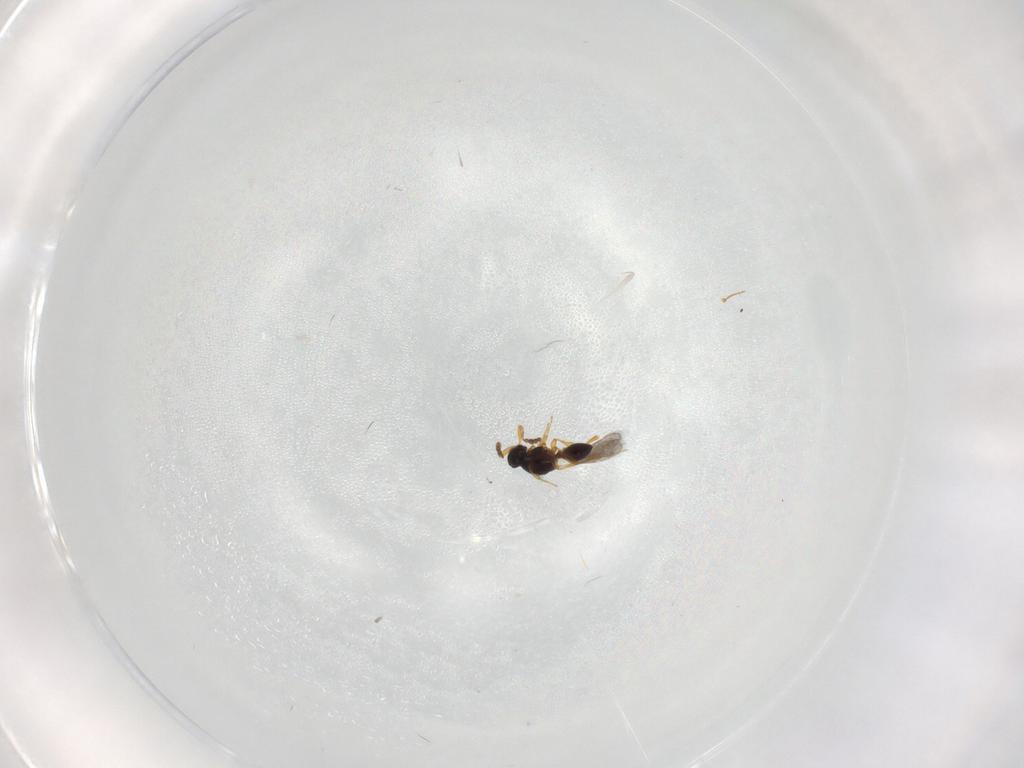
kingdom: Animalia
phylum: Arthropoda
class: Insecta
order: Hymenoptera
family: Platygastridae
